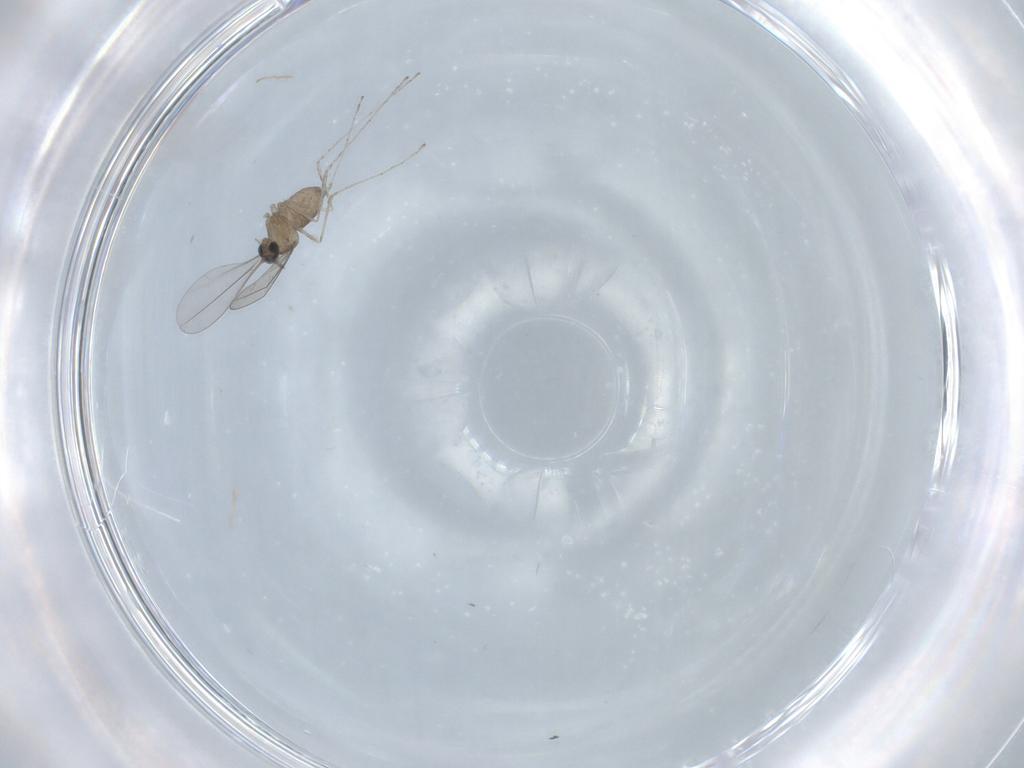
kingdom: Animalia
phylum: Arthropoda
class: Insecta
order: Diptera
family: Cecidomyiidae
